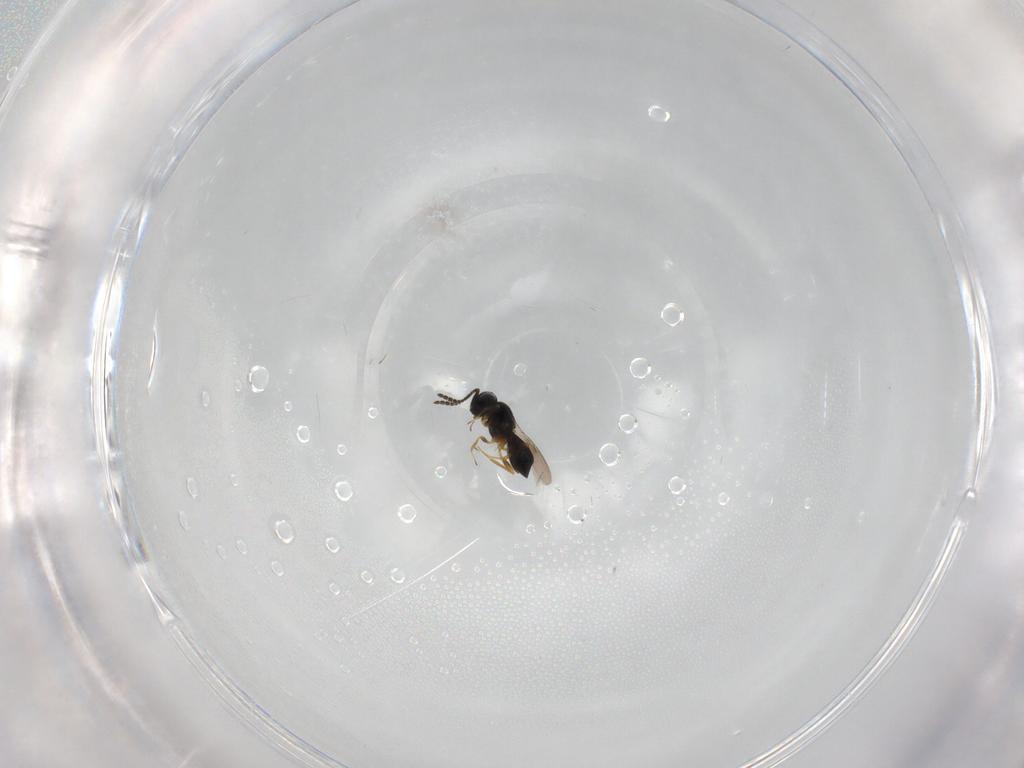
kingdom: Animalia
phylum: Arthropoda
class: Insecta
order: Hymenoptera
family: Scelionidae
